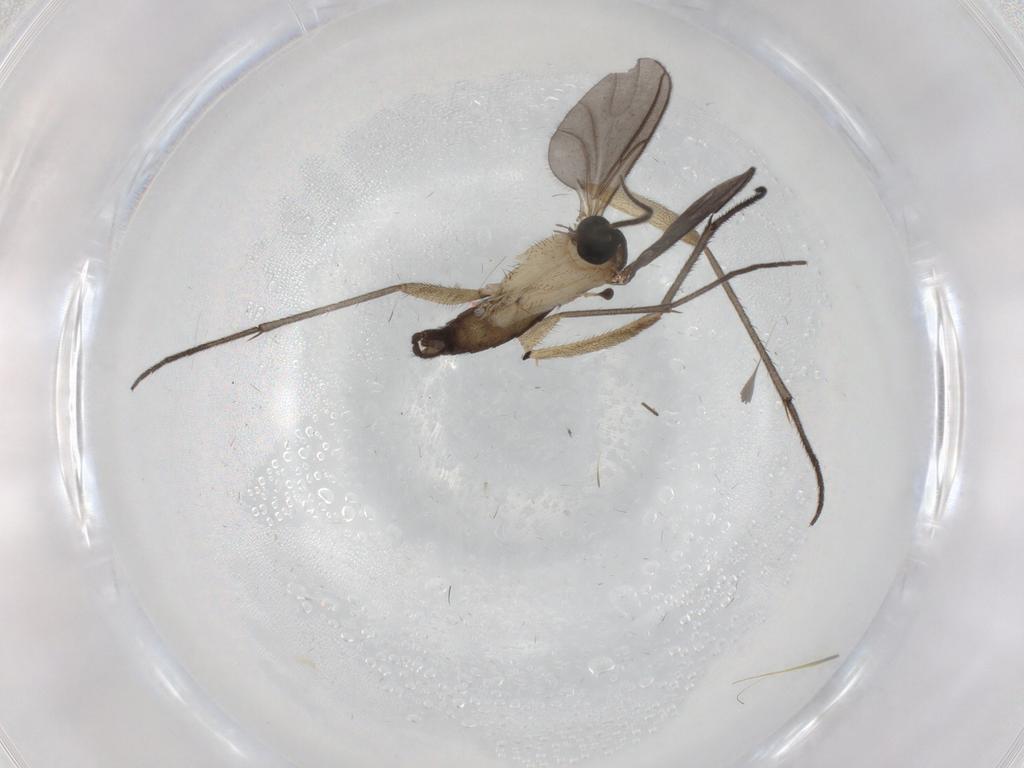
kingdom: Animalia
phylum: Arthropoda
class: Insecta
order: Diptera
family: Sciaridae
